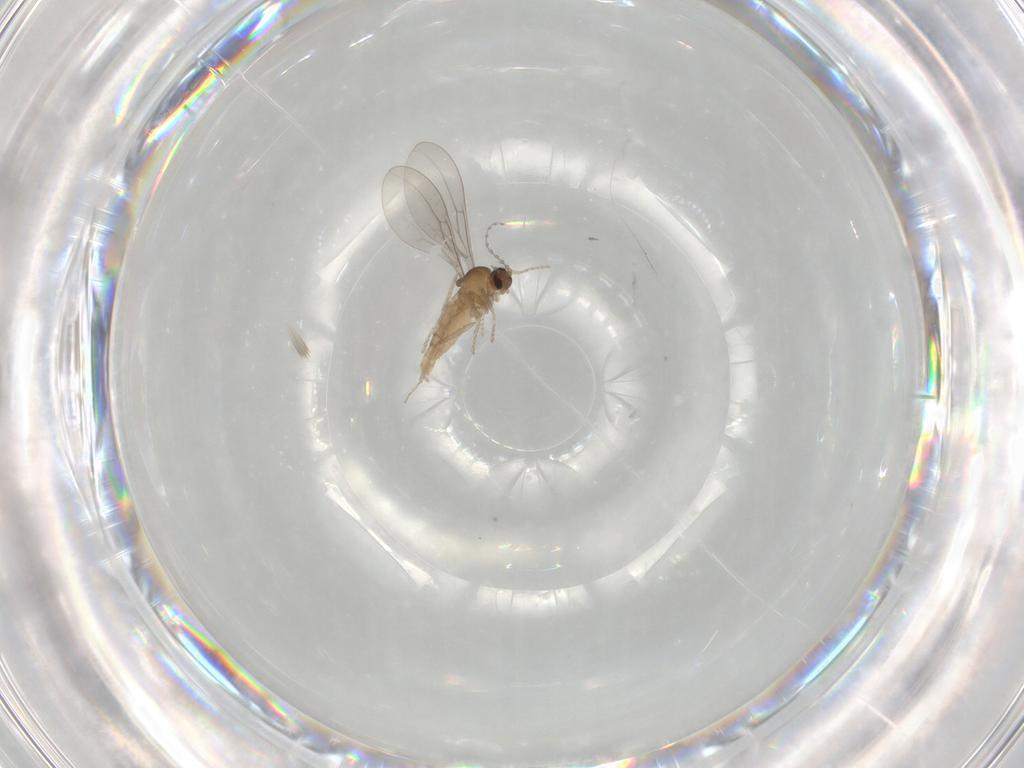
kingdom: Animalia
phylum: Arthropoda
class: Insecta
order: Diptera
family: Cecidomyiidae
